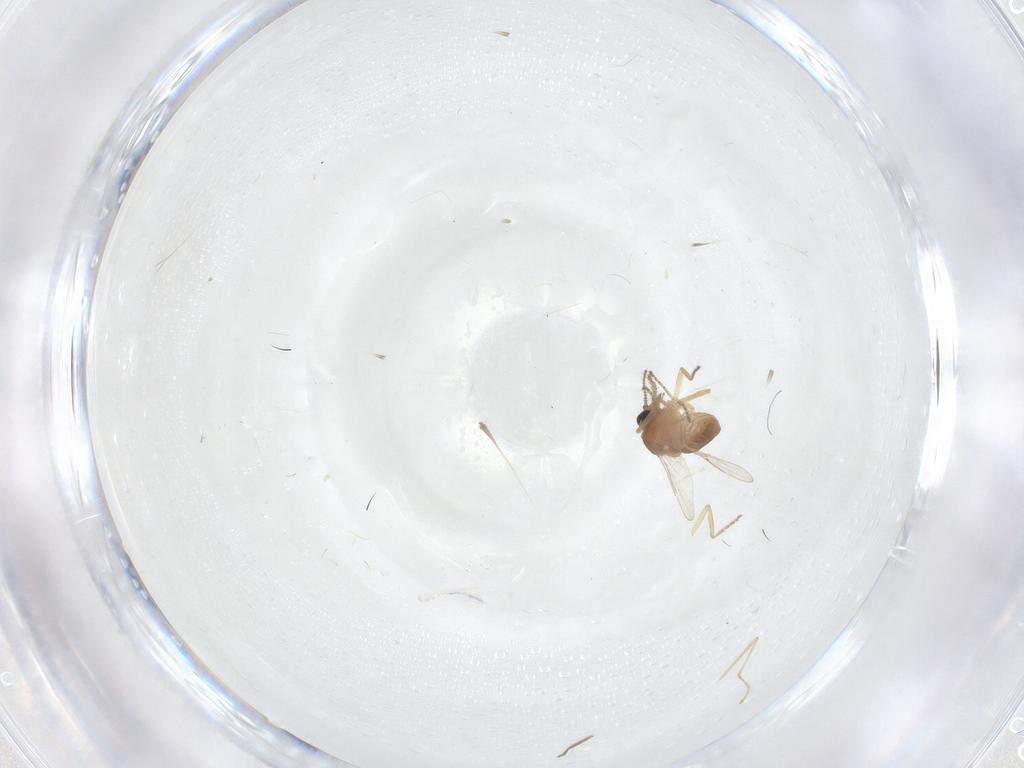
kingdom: Animalia
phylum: Arthropoda
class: Insecta
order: Diptera
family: Ceratopogonidae
